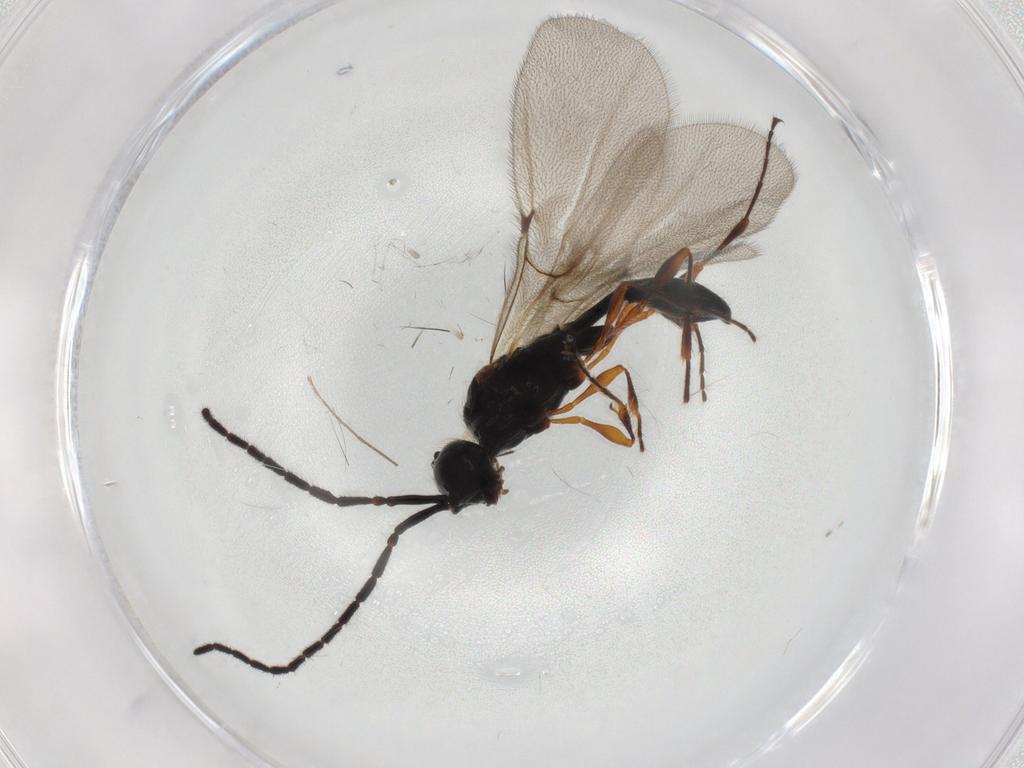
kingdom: Animalia
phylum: Arthropoda
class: Insecta
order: Hymenoptera
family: Diapriidae
